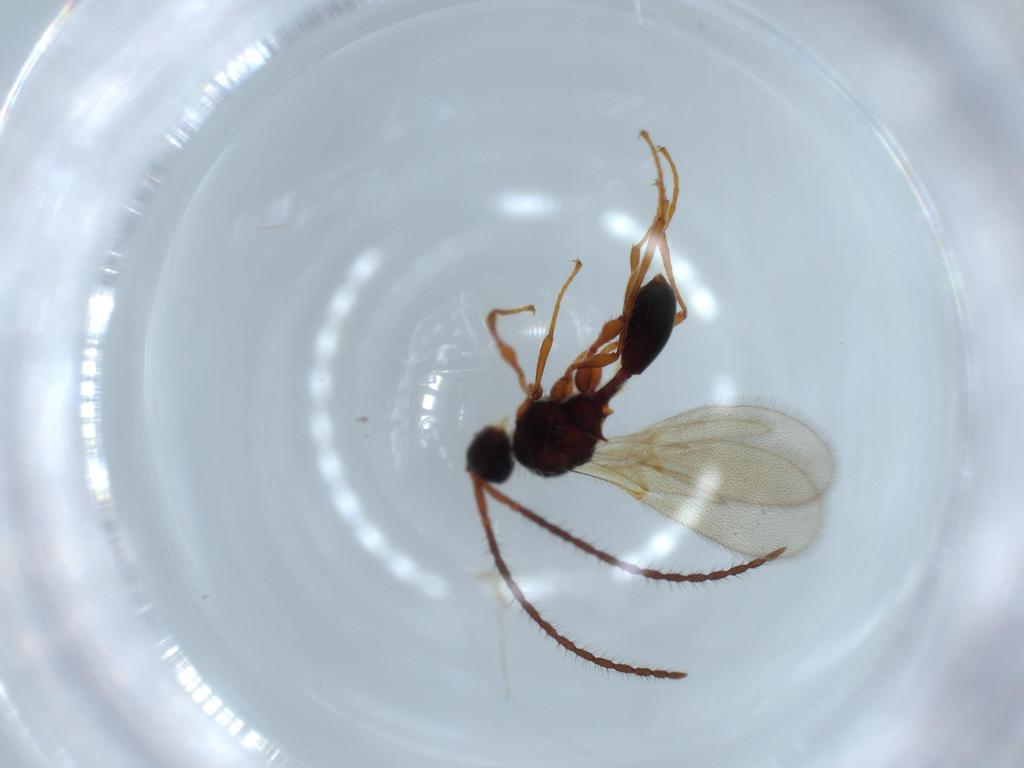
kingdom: Animalia
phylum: Arthropoda
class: Insecta
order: Hymenoptera
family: Diapriidae
